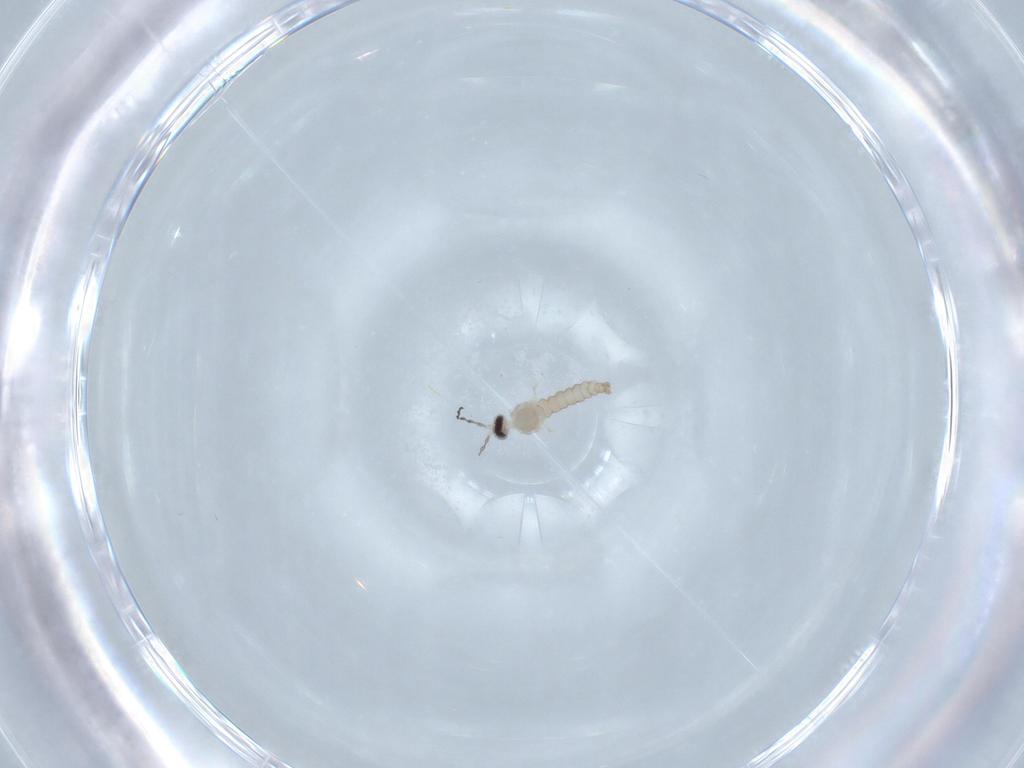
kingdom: Animalia
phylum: Arthropoda
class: Insecta
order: Diptera
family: Cecidomyiidae
